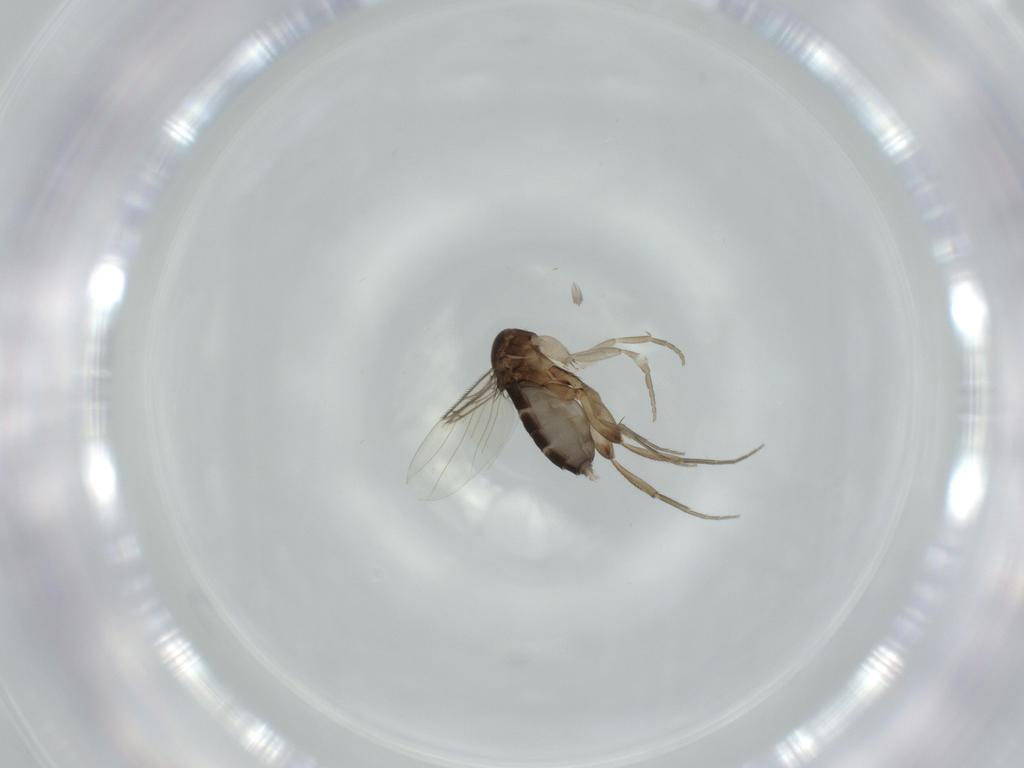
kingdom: Animalia
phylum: Arthropoda
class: Insecta
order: Diptera
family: Phoridae
